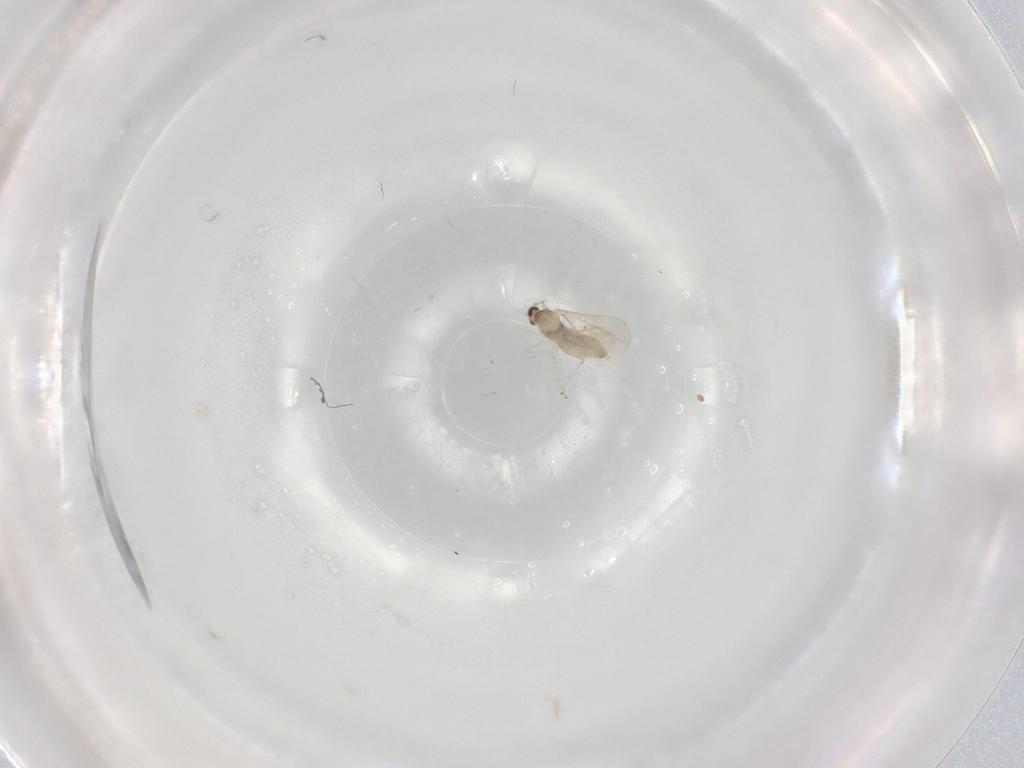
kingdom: Animalia
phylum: Arthropoda
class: Insecta
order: Diptera
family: Cecidomyiidae
